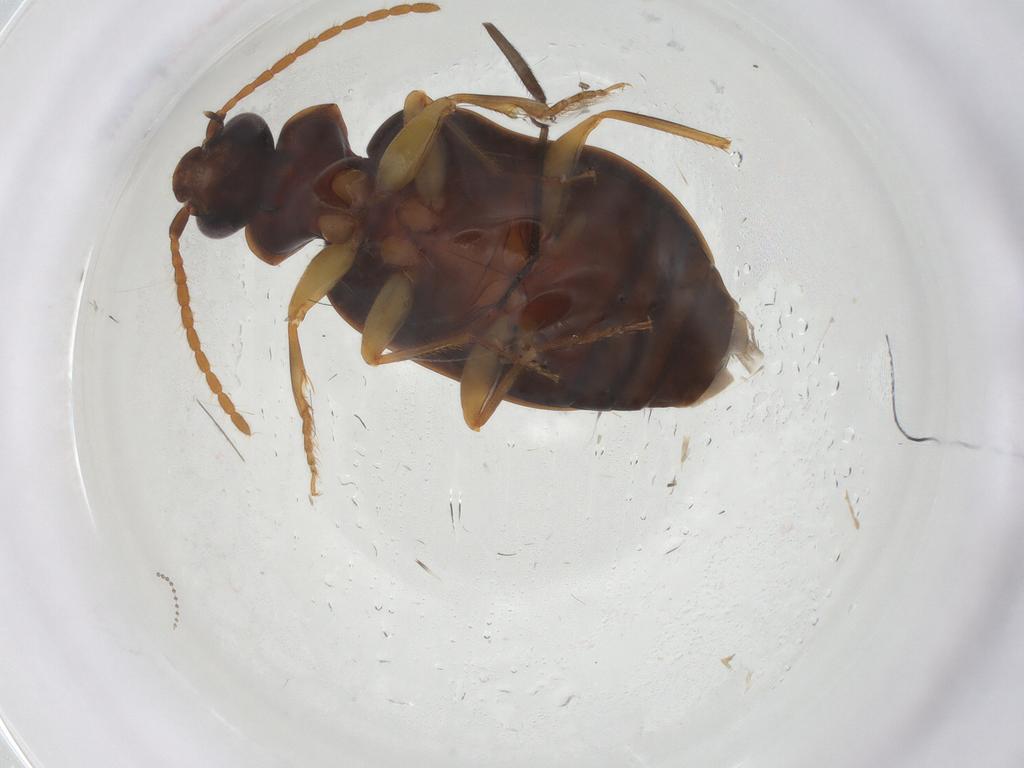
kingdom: Animalia
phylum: Arthropoda
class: Insecta
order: Coleoptera
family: Carabidae
